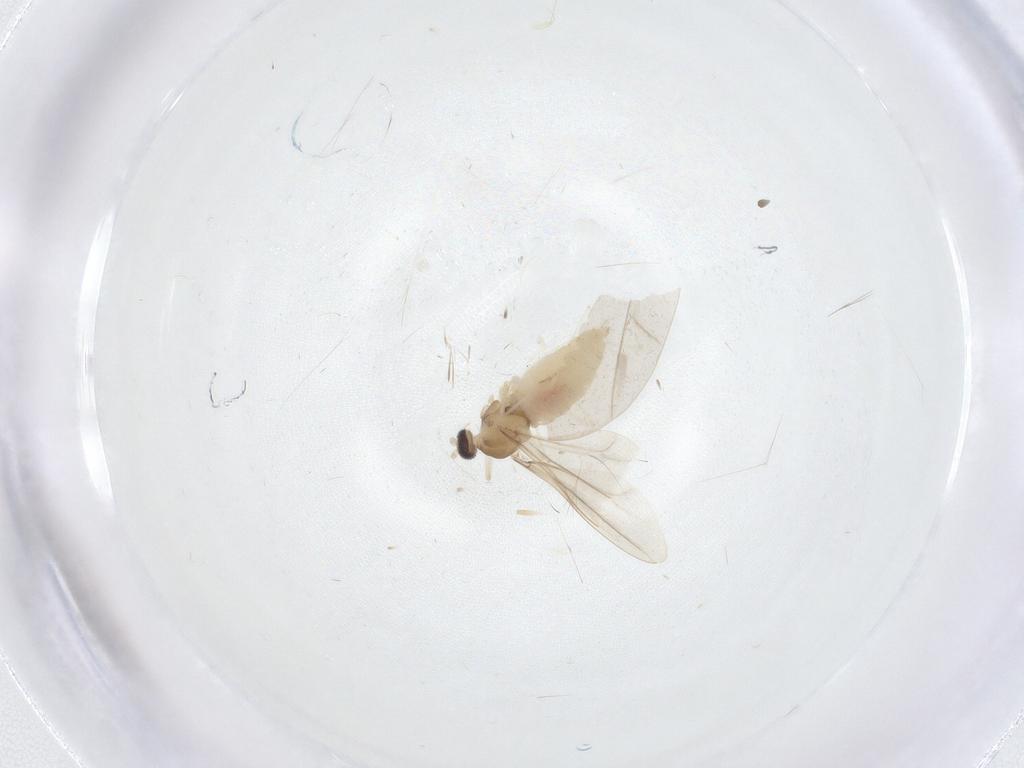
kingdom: Animalia
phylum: Arthropoda
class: Insecta
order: Diptera
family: Cecidomyiidae
